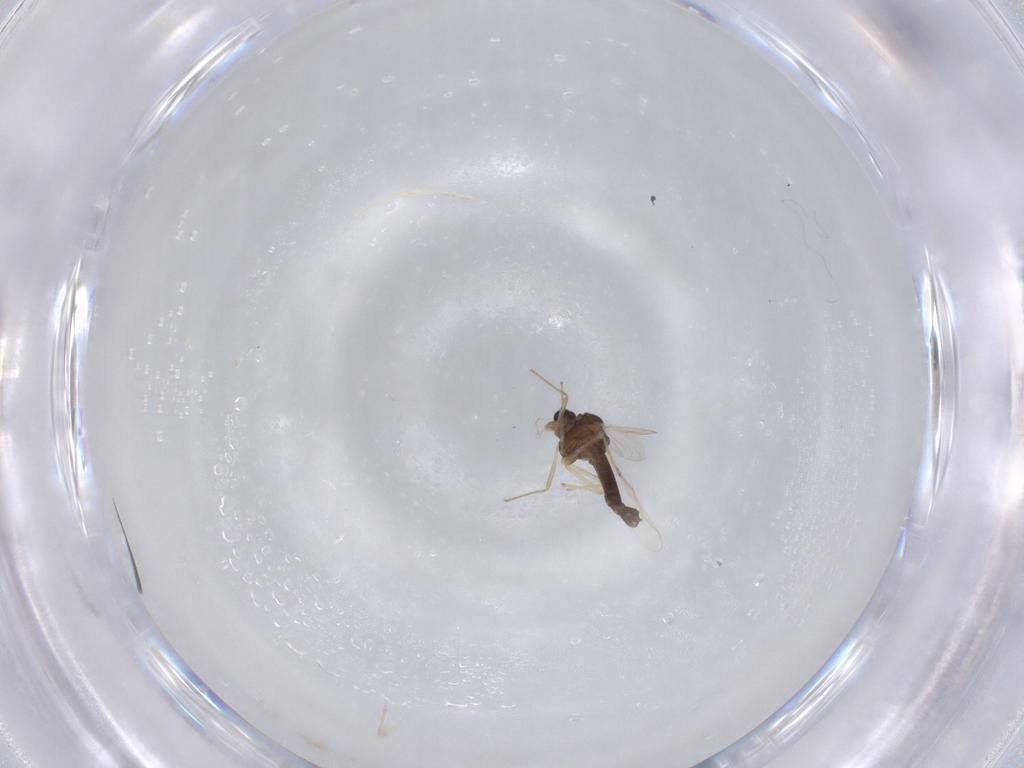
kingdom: Animalia
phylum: Arthropoda
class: Insecta
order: Diptera
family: Chironomidae
